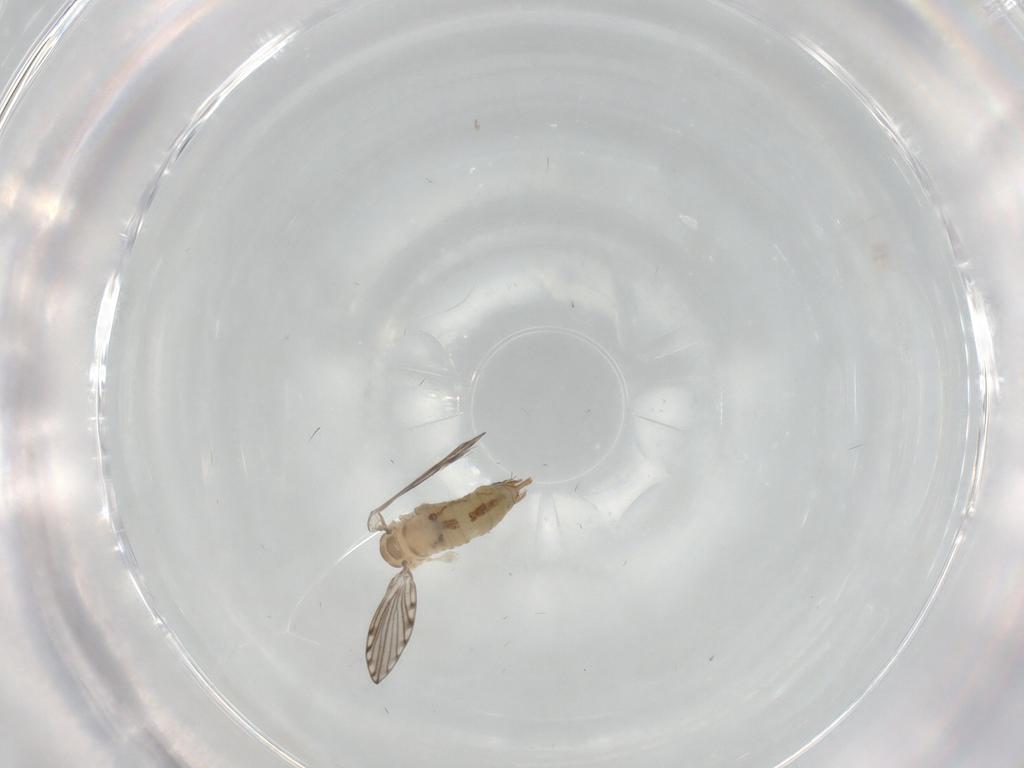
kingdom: Animalia
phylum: Arthropoda
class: Insecta
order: Diptera
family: Psychodidae
